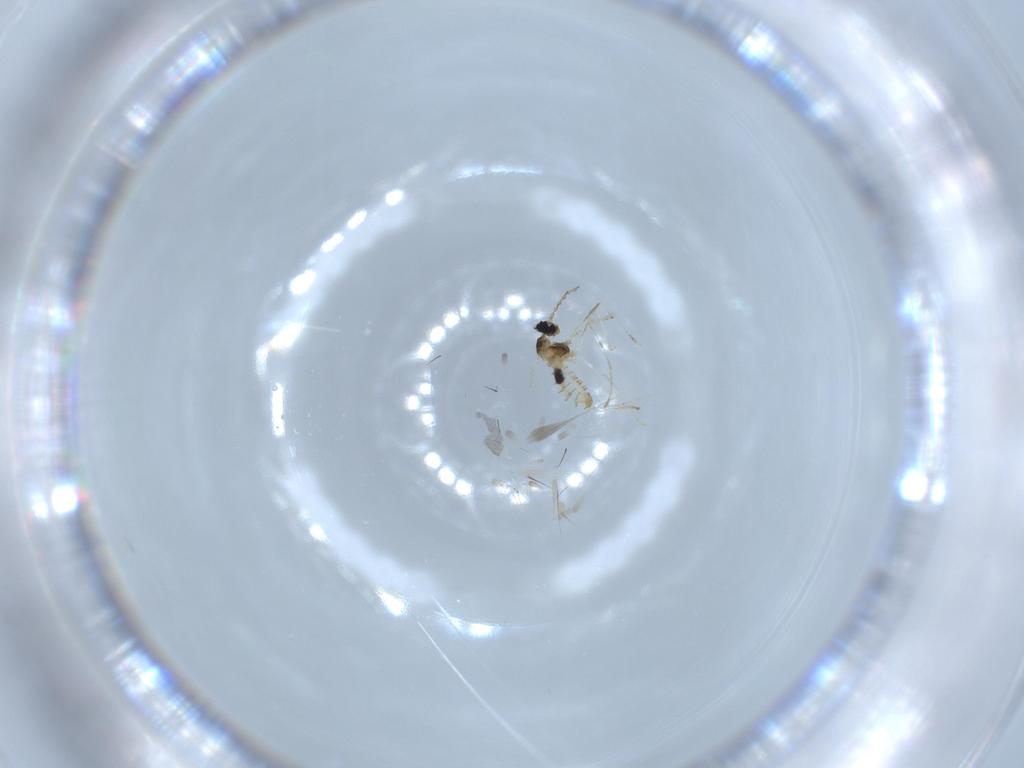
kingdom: Animalia
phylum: Arthropoda
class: Insecta
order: Diptera
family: Cecidomyiidae
